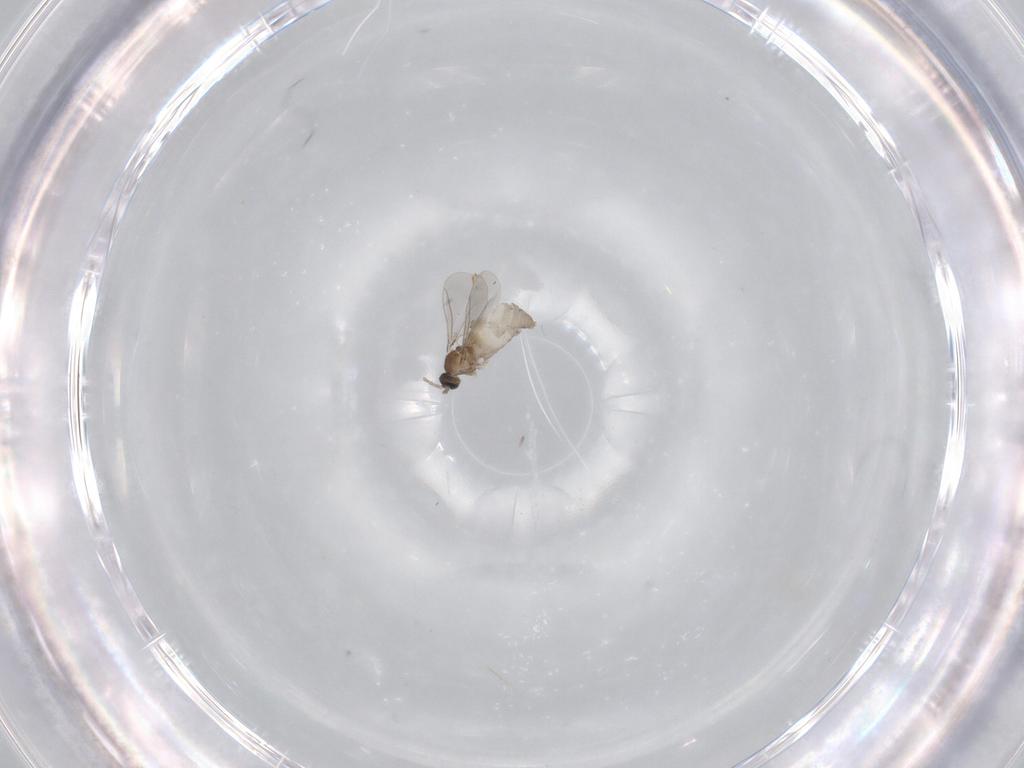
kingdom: Animalia
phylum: Arthropoda
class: Insecta
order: Diptera
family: Cecidomyiidae
